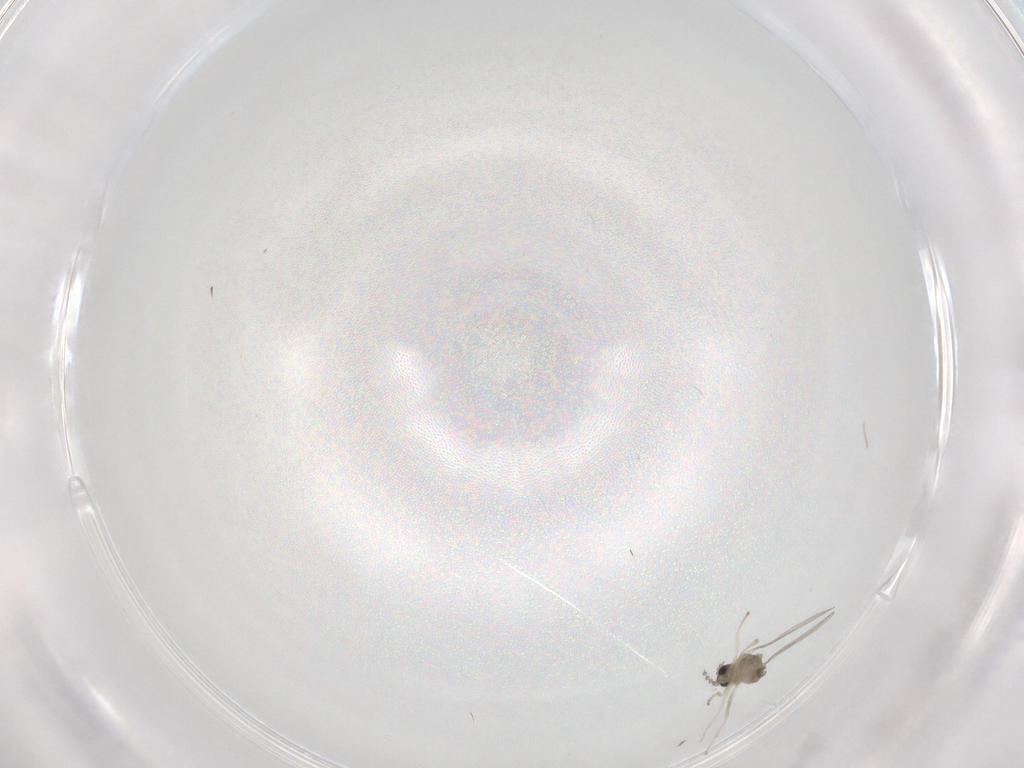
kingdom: Animalia
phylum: Arthropoda
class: Insecta
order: Diptera
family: Cecidomyiidae
